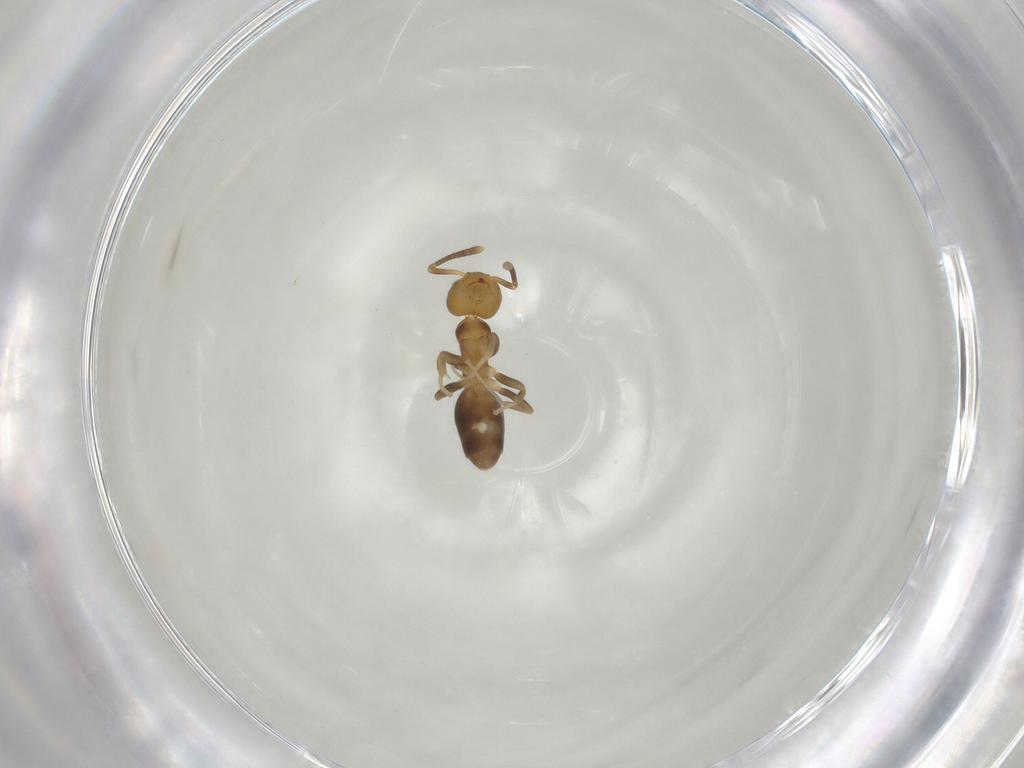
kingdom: Animalia
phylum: Arthropoda
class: Insecta
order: Hymenoptera
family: Formicidae
